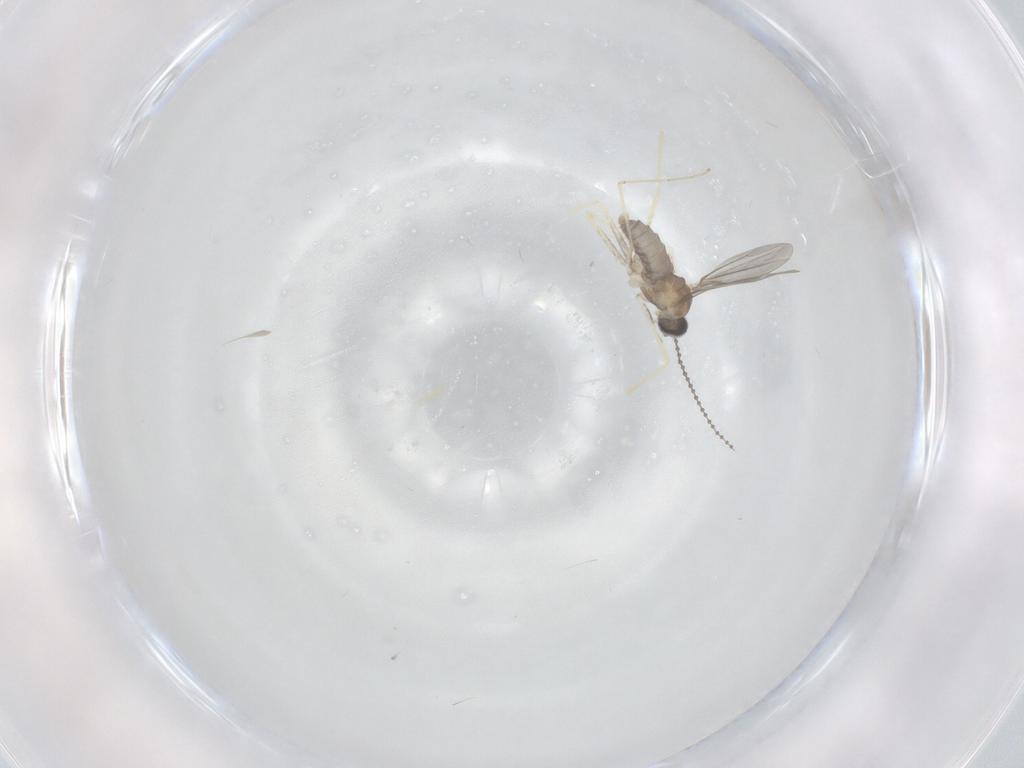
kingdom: Animalia
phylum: Arthropoda
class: Insecta
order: Diptera
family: Cecidomyiidae
